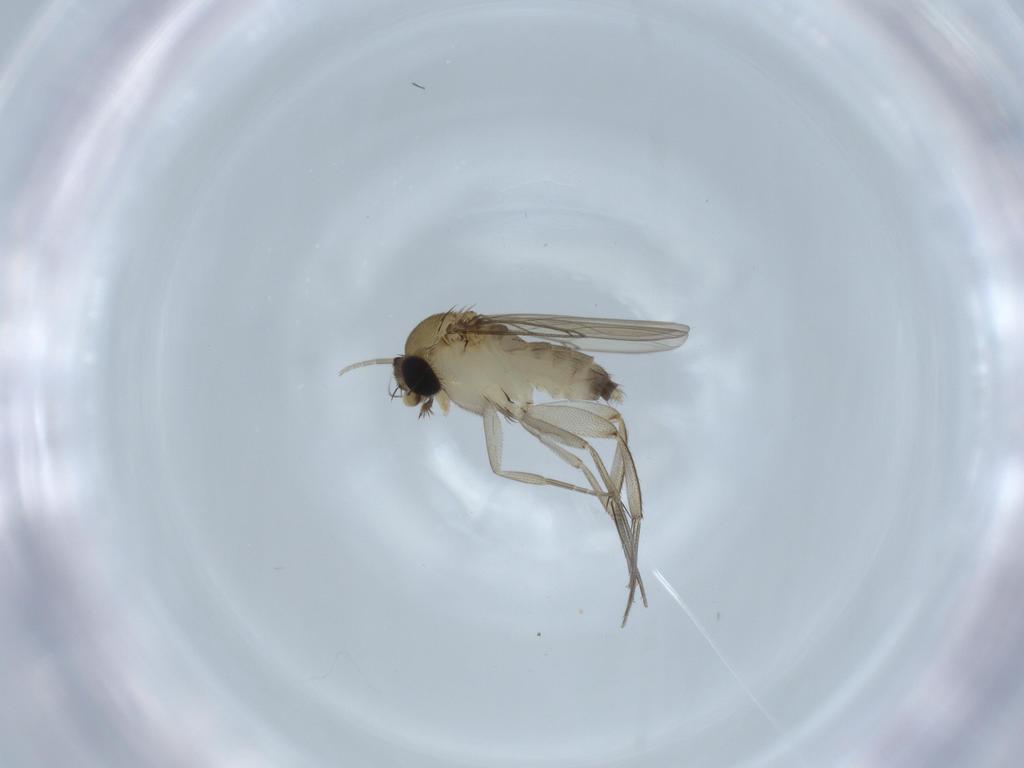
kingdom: Animalia
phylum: Arthropoda
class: Insecta
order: Diptera
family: Sciaridae
